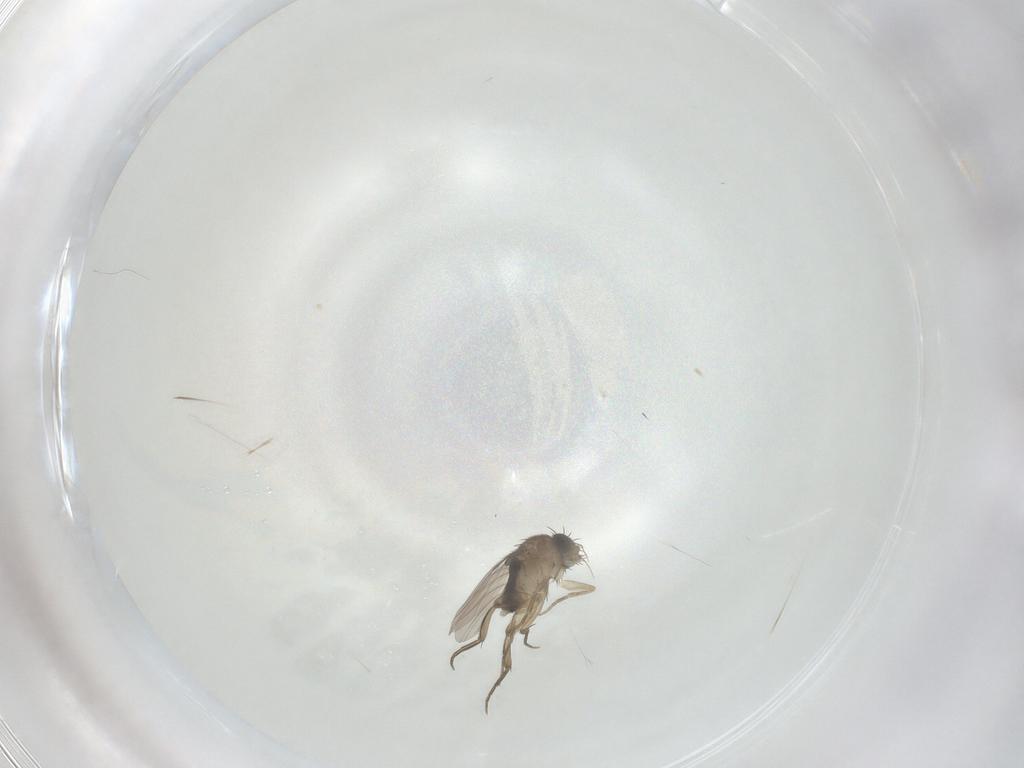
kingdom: Animalia
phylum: Arthropoda
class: Insecta
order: Diptera
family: Phoridae
